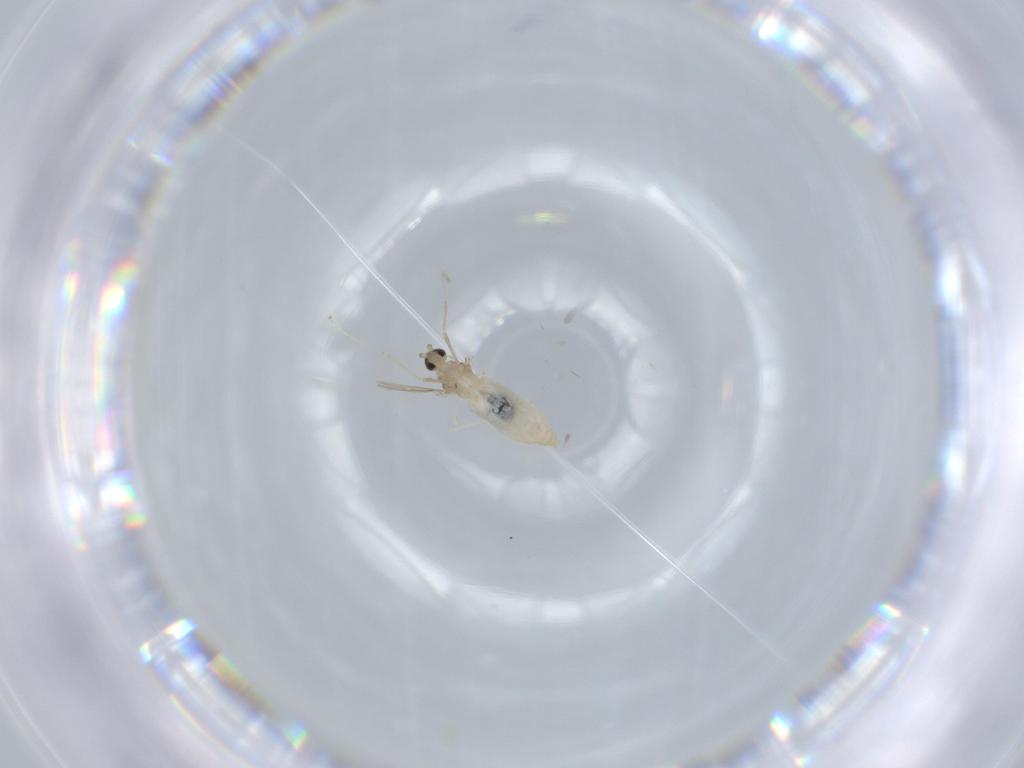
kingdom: Animalia
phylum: Arthropoda
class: Insecta
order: Diptera
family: Cecidomyiidae
